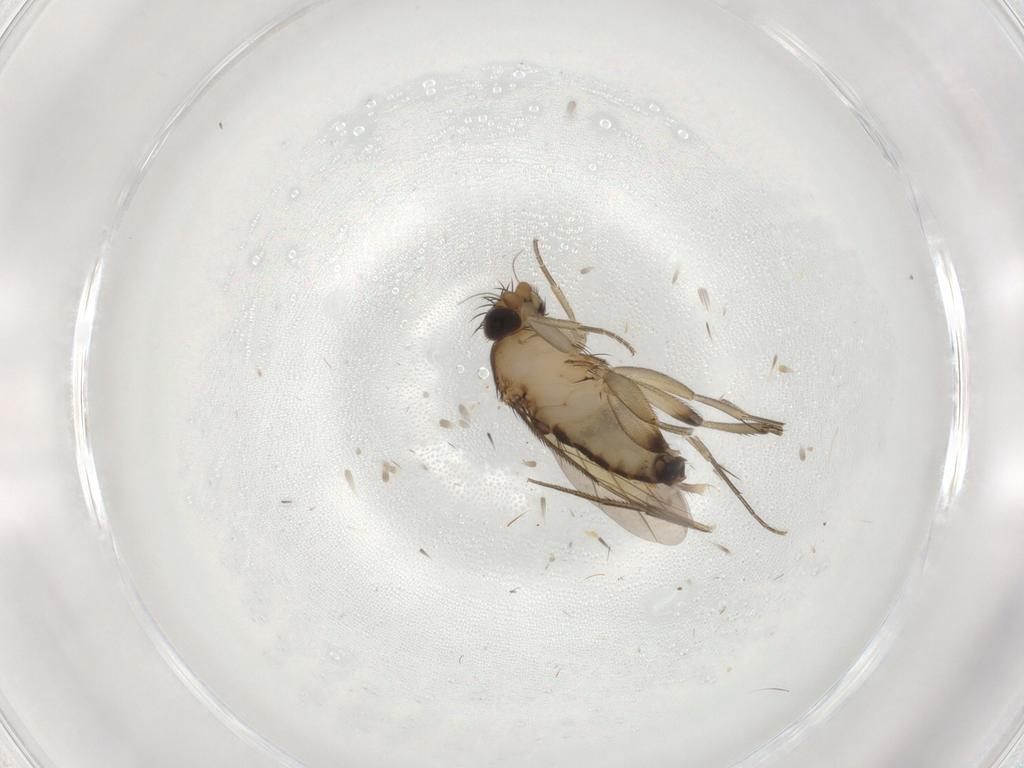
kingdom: Animalia
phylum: Arthropoda
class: Insecta
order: Diptera
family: Phoridae
